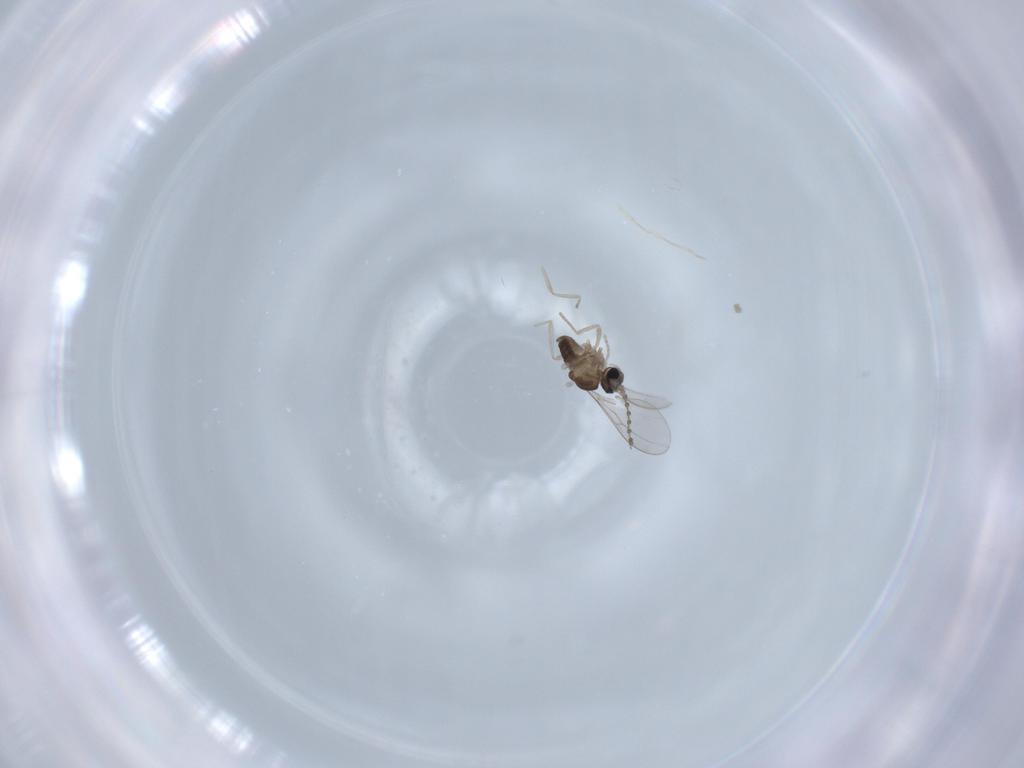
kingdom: Animalia
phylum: Arthropoda
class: Insecta
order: Diptera
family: Cecidomyiidae
